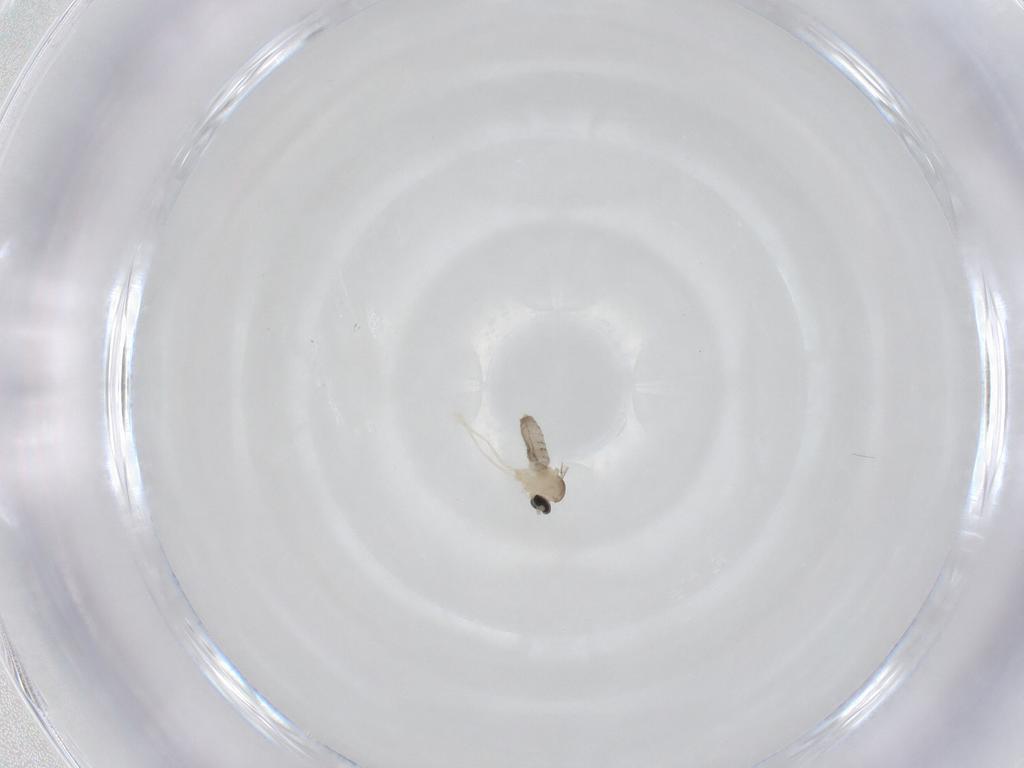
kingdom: Animalia
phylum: Arthropoda
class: Insecta
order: Diptera
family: Cecidomyiidae
